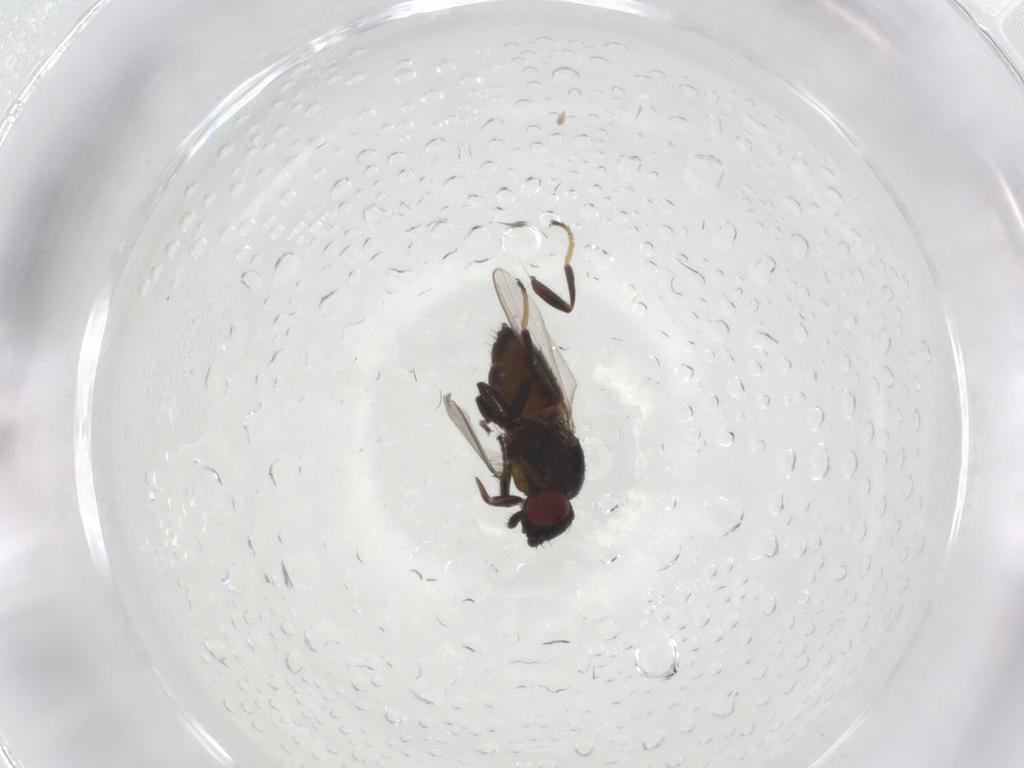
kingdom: Animalia
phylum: Arthropoda
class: Insecta
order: Diptera
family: Milichiidae
